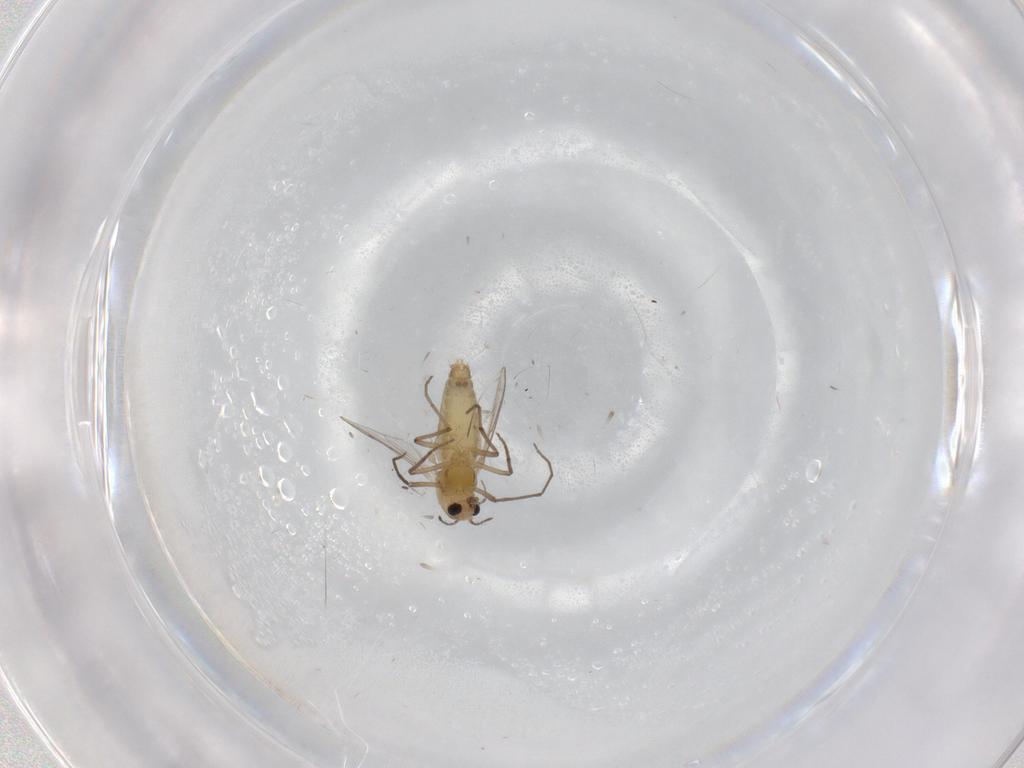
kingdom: Animalia
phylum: Arthropoda
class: Insecta
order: Diptera
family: Chironomidae
